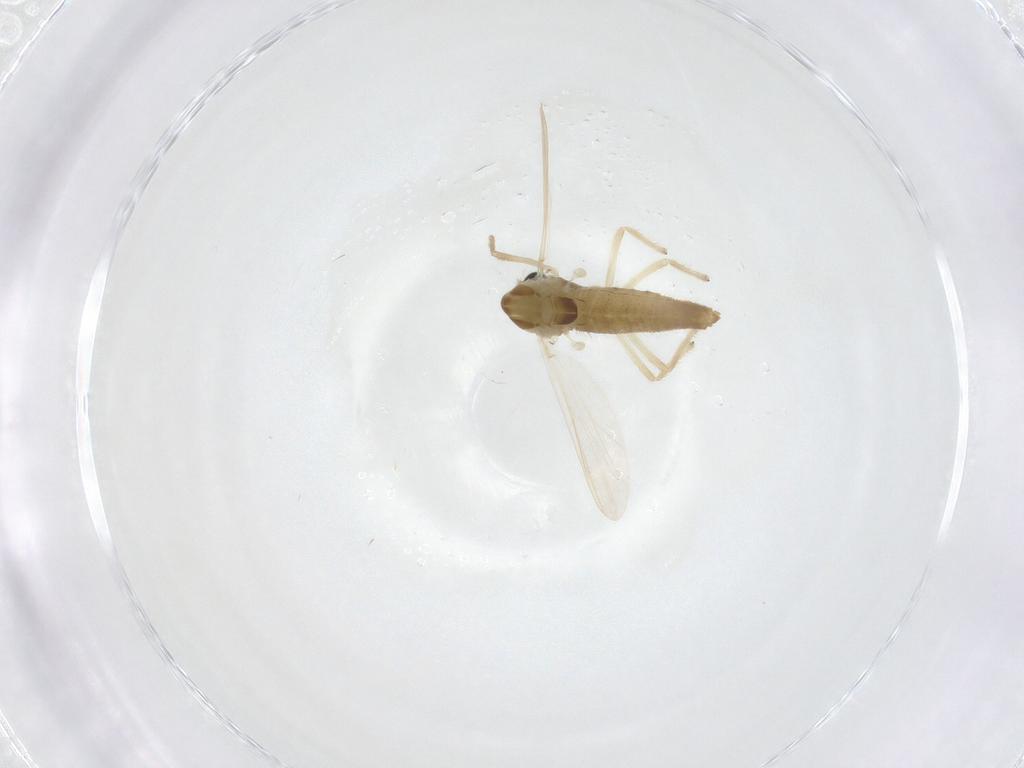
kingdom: Animalia
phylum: Arthropoda
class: Insecta
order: Diptera
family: Chironomidae
